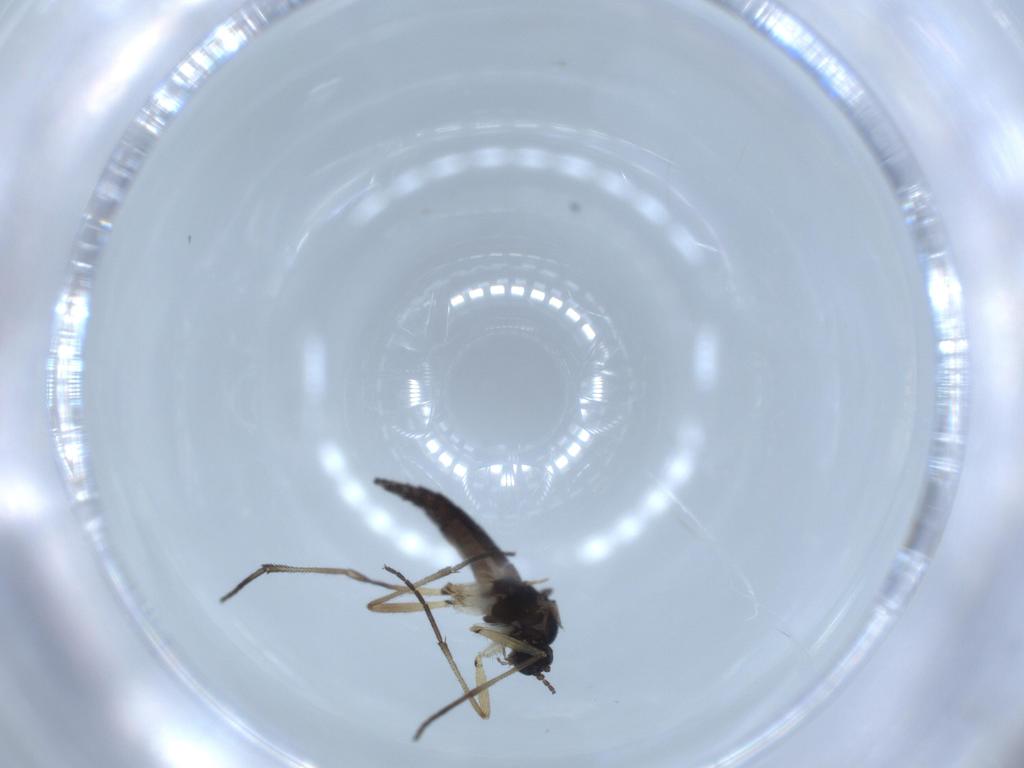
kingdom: Animalia
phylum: Arthropoda
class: Insecta
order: Diptera
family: Sciaridae
